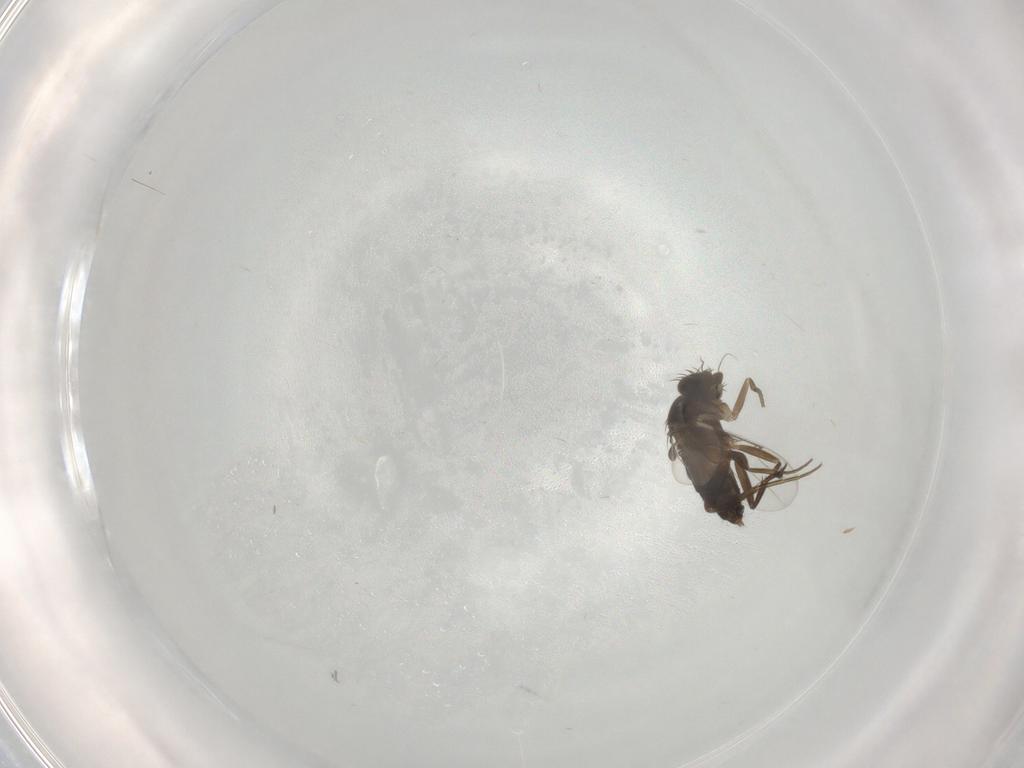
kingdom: Animalia
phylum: Arthropoda
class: Insecta
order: Diptera
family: Phoridae
